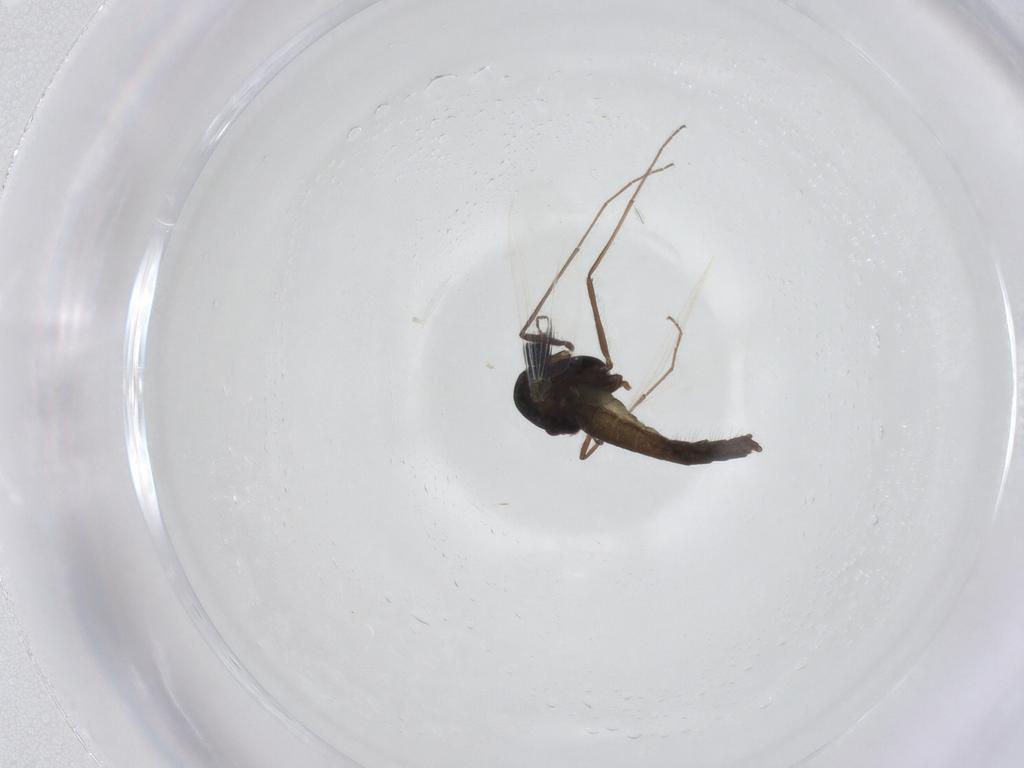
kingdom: Animalia
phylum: Arthropoda
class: Insecta
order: Diptera
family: Chironomidae
